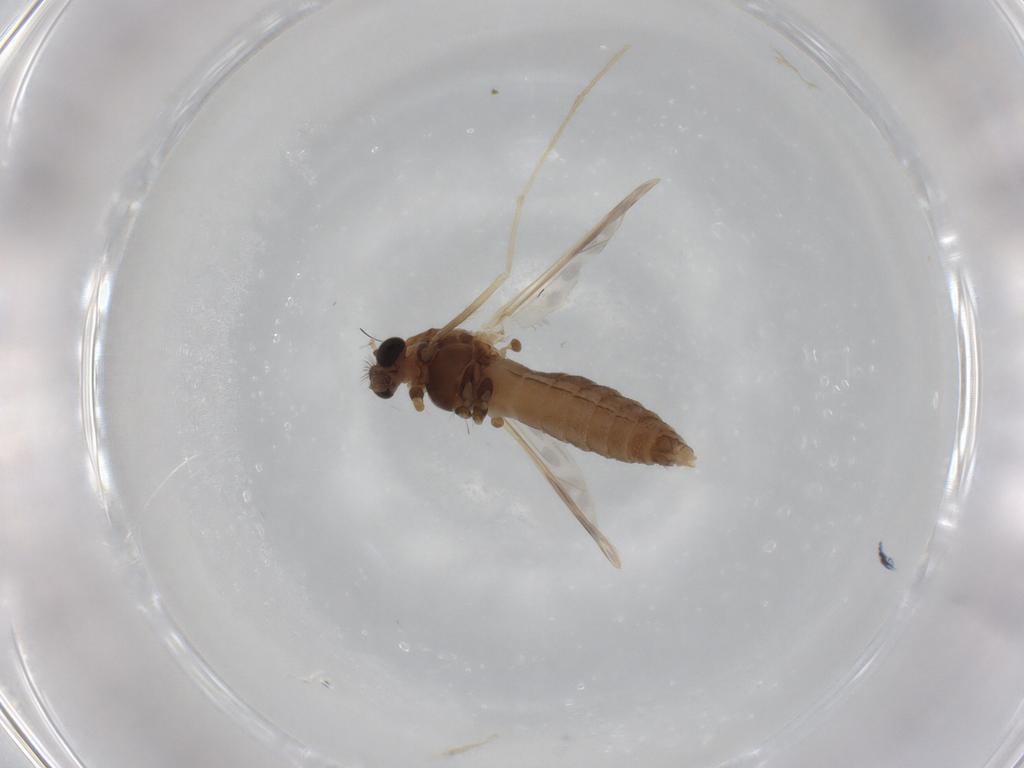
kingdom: Animalia
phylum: Arthropoda
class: Insecta
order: Diptera
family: Chironomidae
